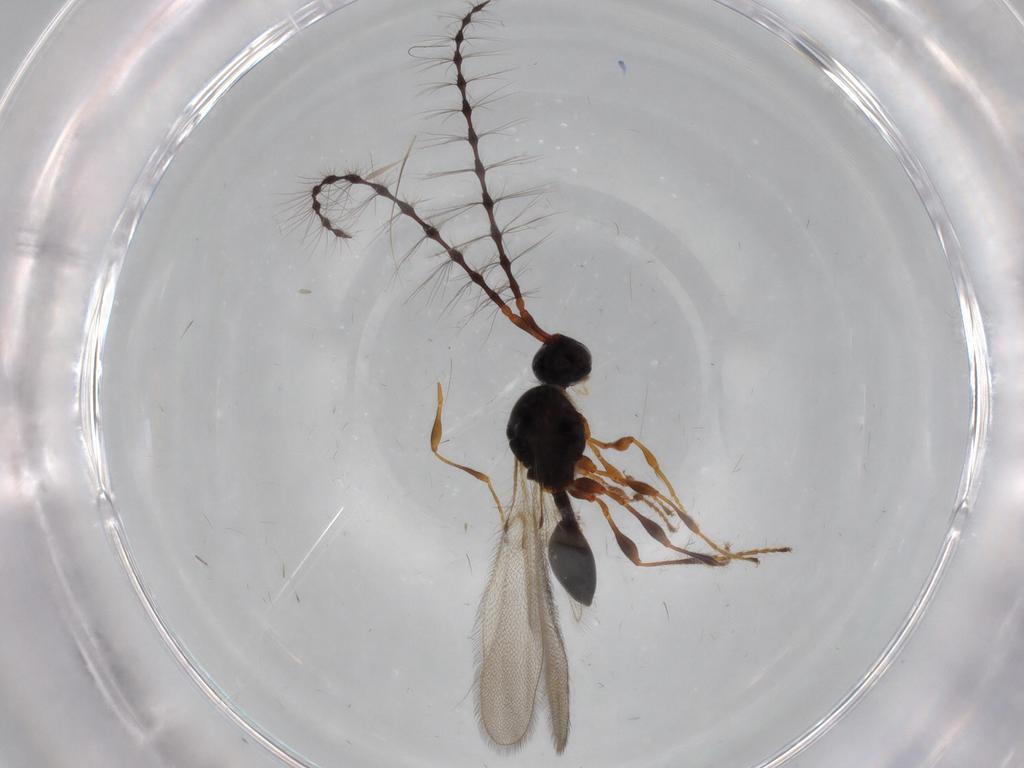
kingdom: Animalia
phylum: Arthropoda
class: Insecta
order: Hymenoptera
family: Diapriidae
